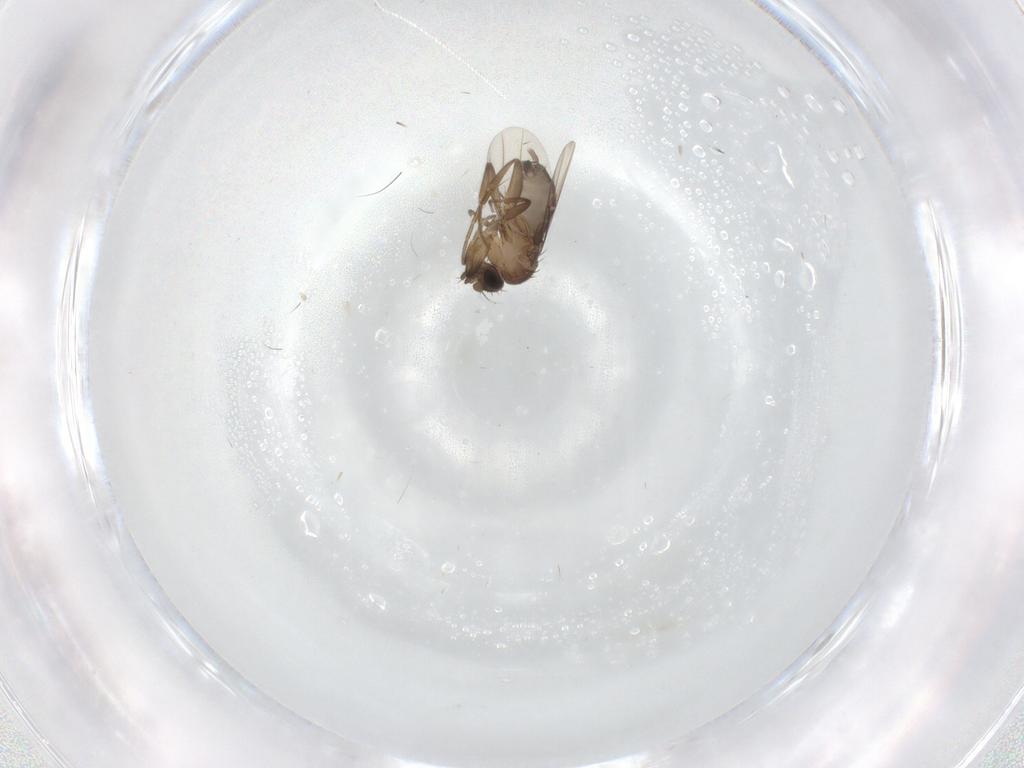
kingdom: Animalia
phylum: Arthropoda
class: Insecta
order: Diptera
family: Phoridae
